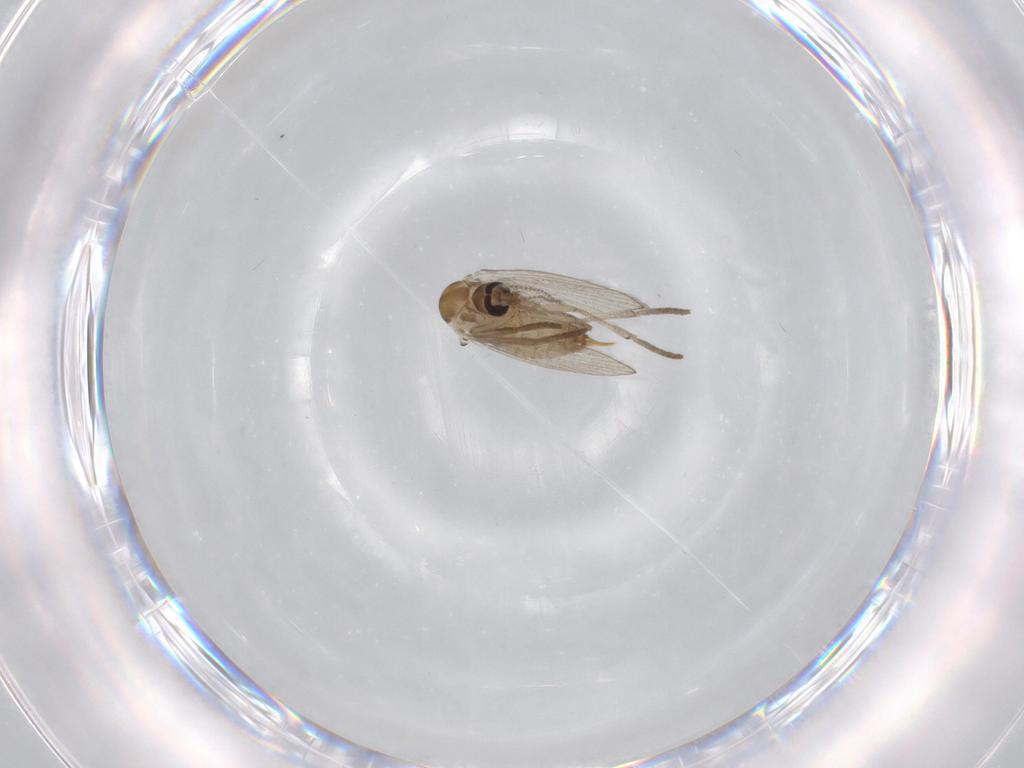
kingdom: Animalia
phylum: Arthropoda
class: Insecta
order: Diptera
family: Psychodidae
